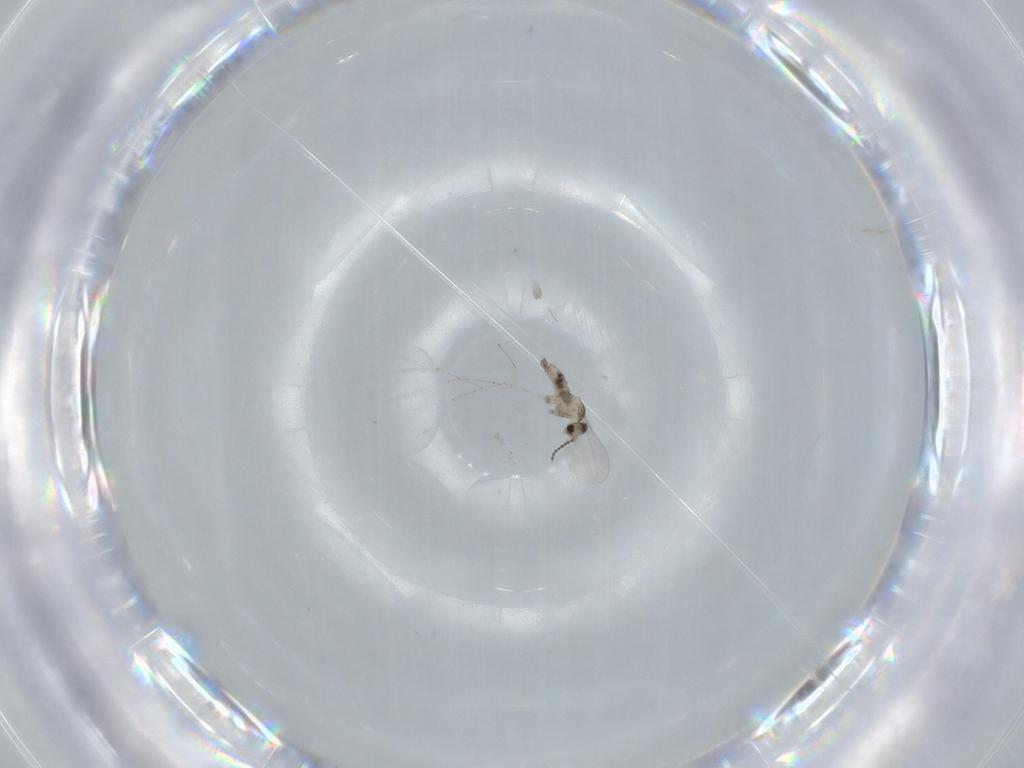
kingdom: Animalia
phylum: Arthropoda
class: Insecta
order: Diptera
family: Cecidomyiidae
